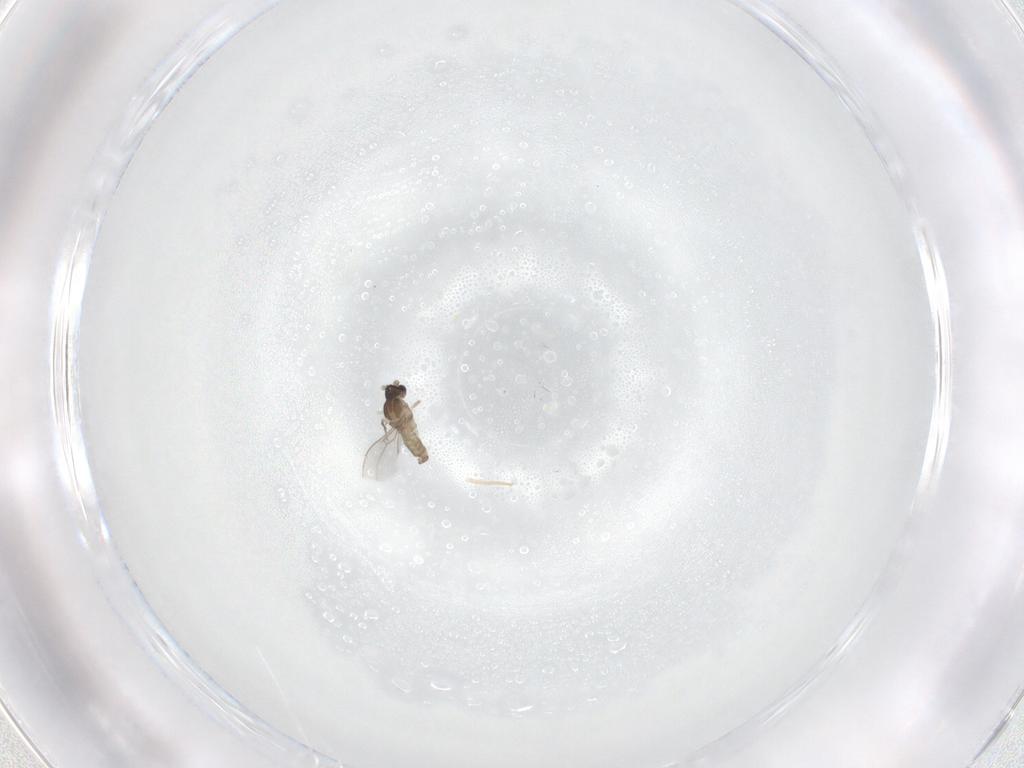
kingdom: Animalia
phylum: Arthropoda
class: Insecta
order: Diptera
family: Cecidomyiidae
